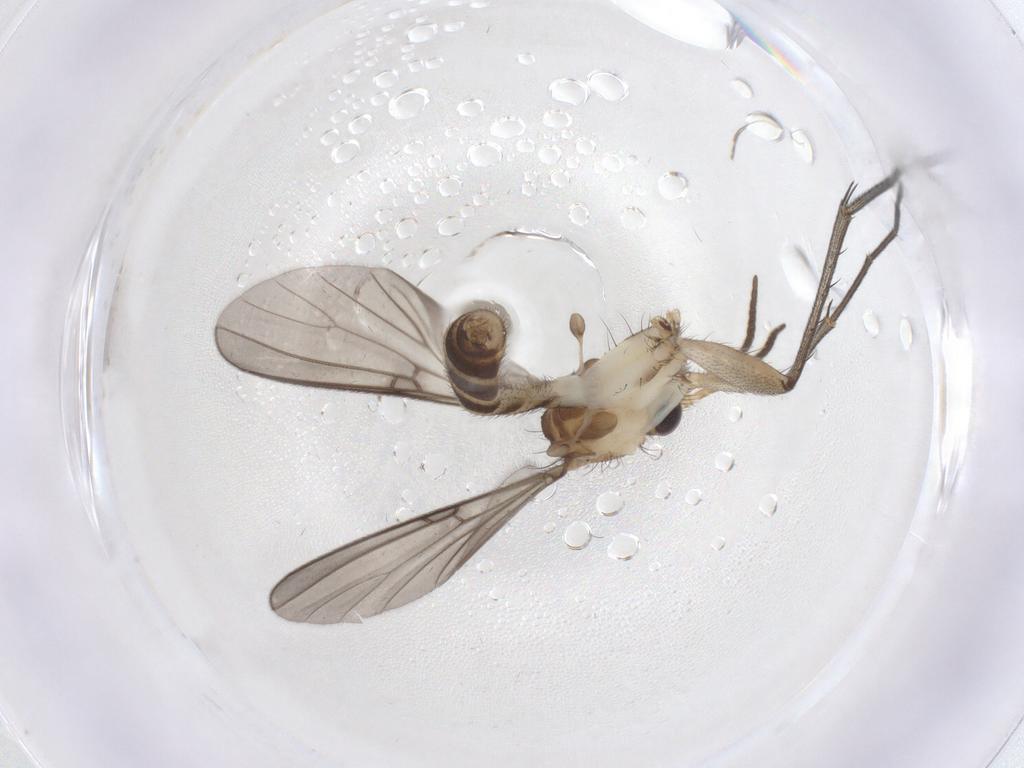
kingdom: Animalia
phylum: Arthropoda
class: Insecta
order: Diptera
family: Mycetophilidae
